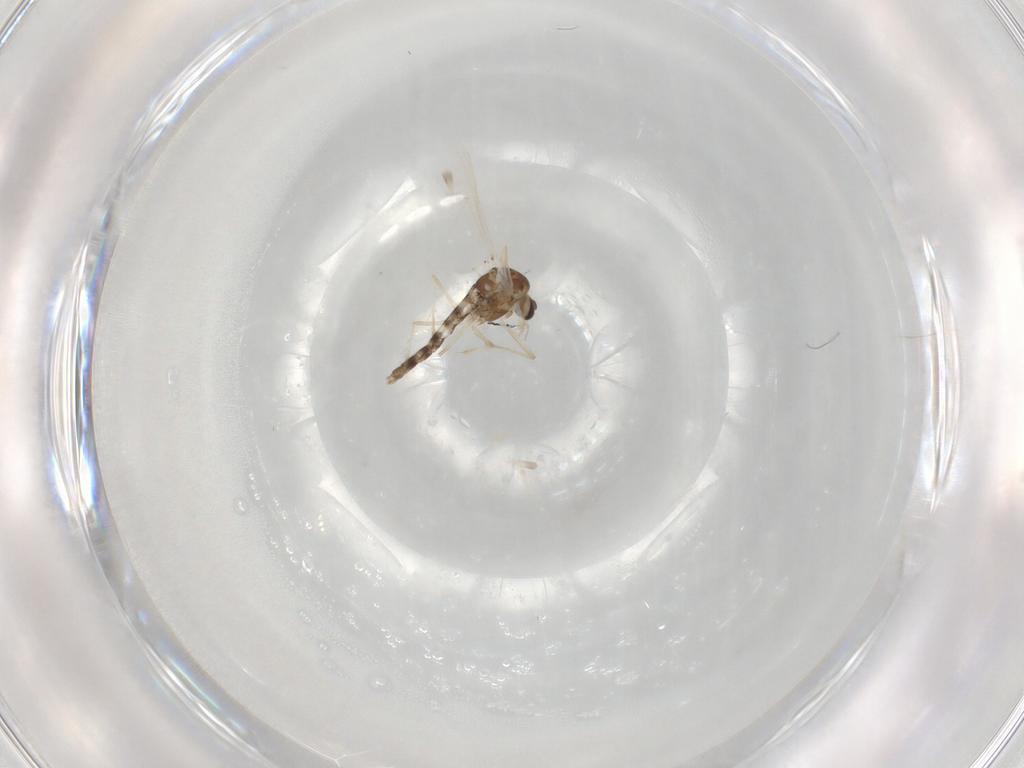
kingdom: Animalia
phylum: Arthropoda
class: Insecta
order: Diptera
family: Chironomidae
